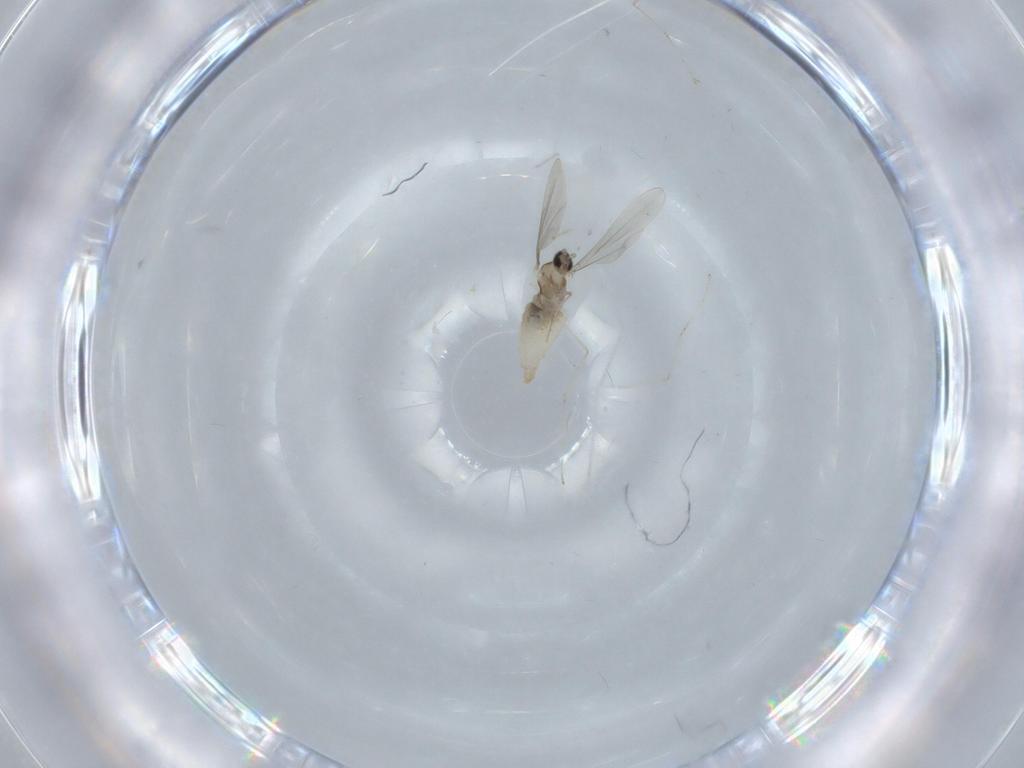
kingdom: Animalia
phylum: Arthropoda
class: Insecta
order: Diptera
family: Cecidomyiidae
